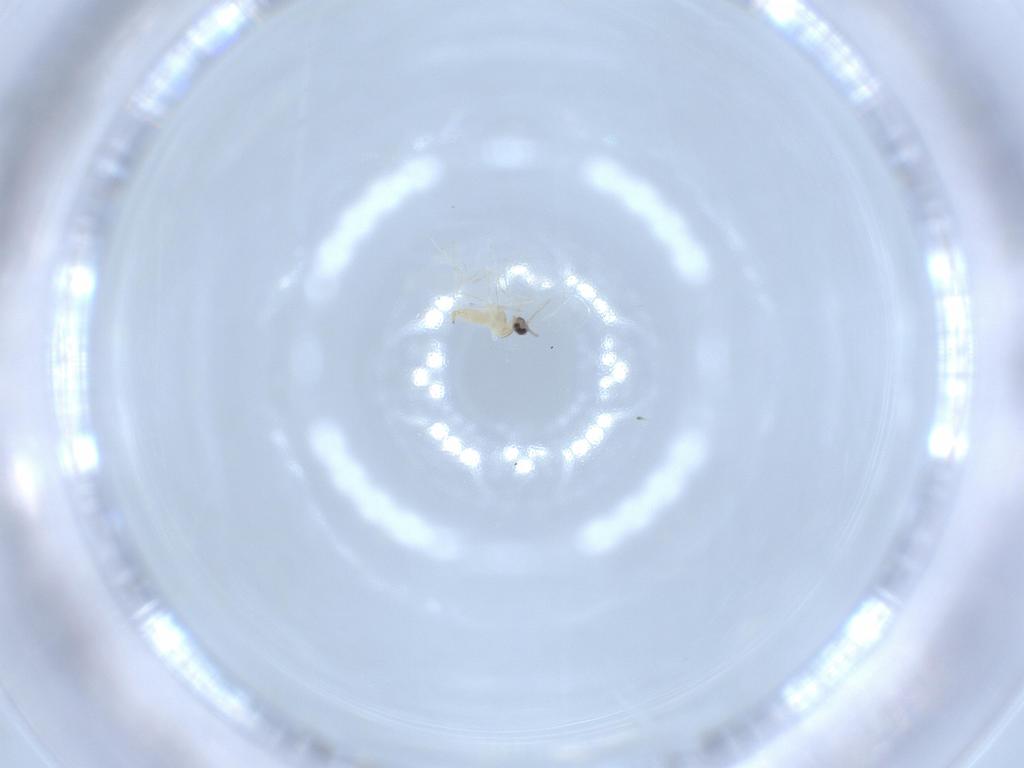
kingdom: Animalia
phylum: Arthropoda
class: Insecta
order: Diptera
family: Cecidomyiidae
